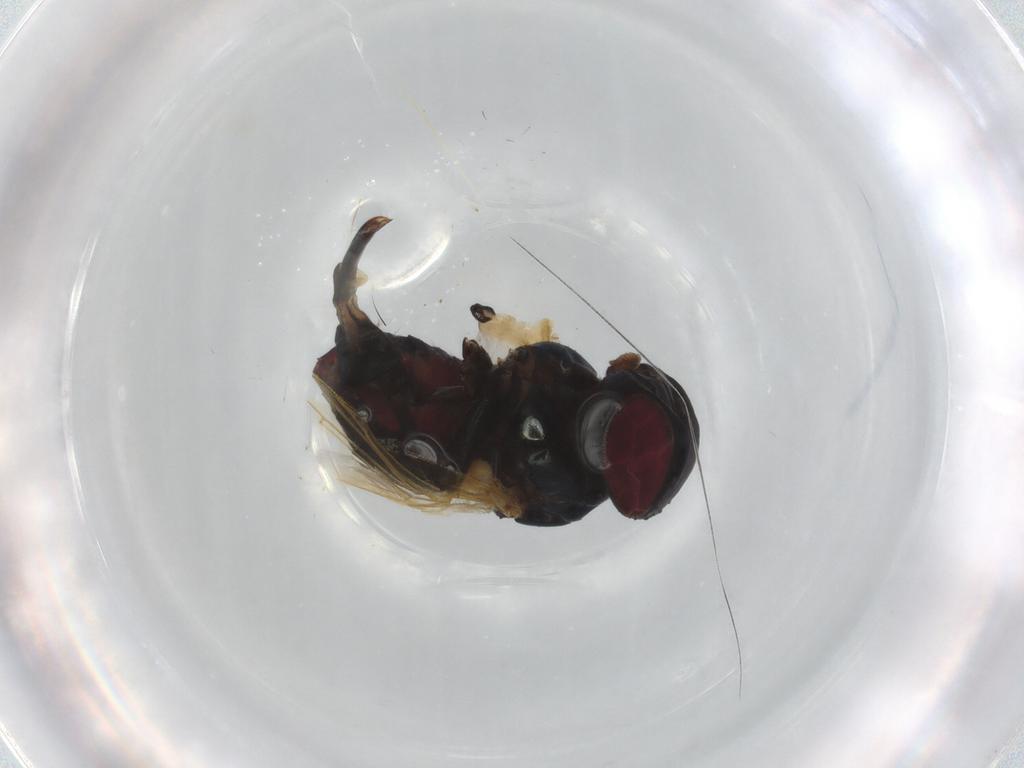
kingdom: Animalia
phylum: Arthropoda
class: Insecta
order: Diptera
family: Cecidomyiidae
